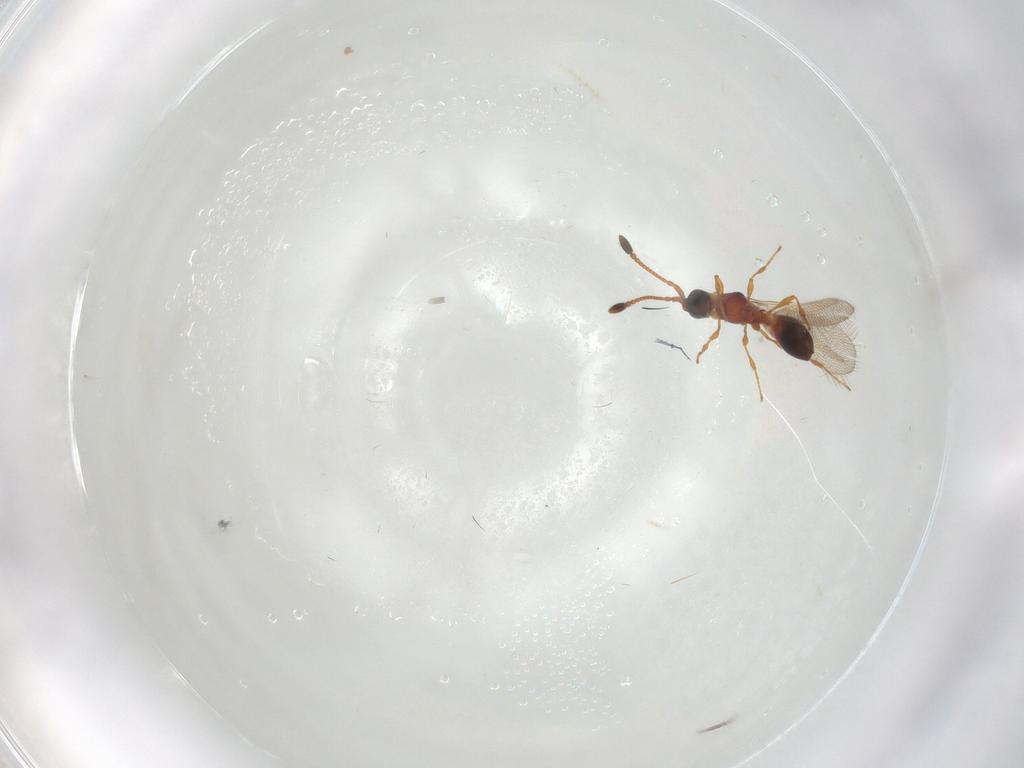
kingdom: Animalia
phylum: Arthropoda
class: Insecta
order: Hymenoptera
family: Diapriidae
